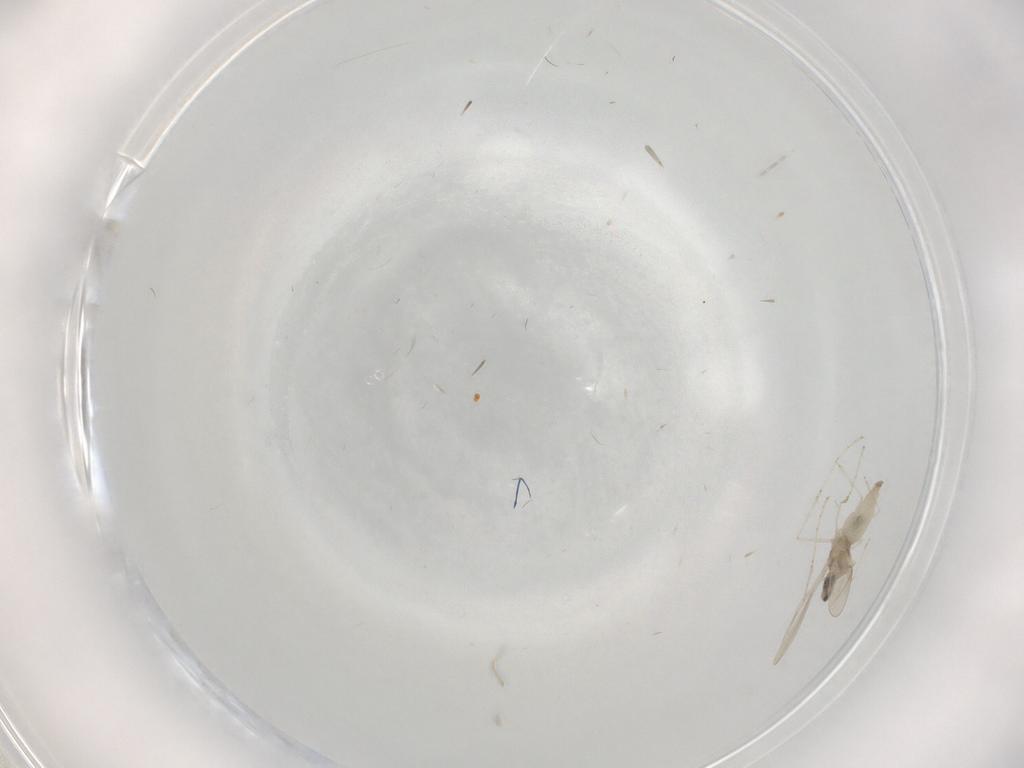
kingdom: Animalia
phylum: Arthropoda
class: Insecta
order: Diptera
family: Cecidomyiidae
